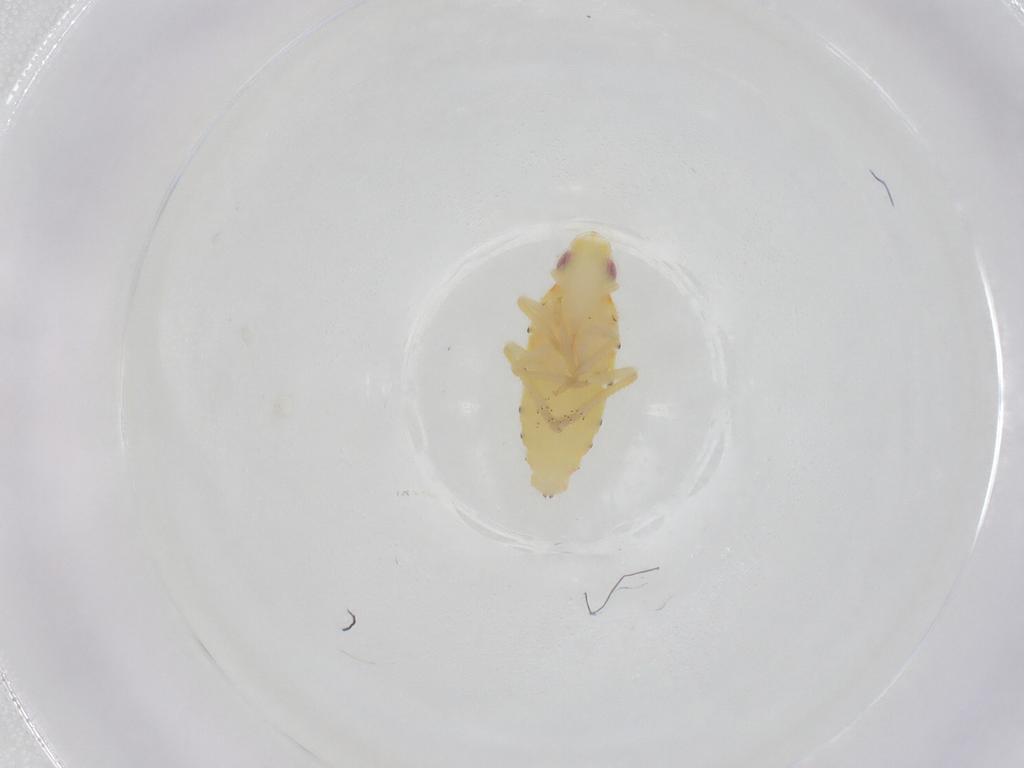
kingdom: Animalia
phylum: Arthropoda
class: Insecta
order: Hemiptera
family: Tropiduchidae
